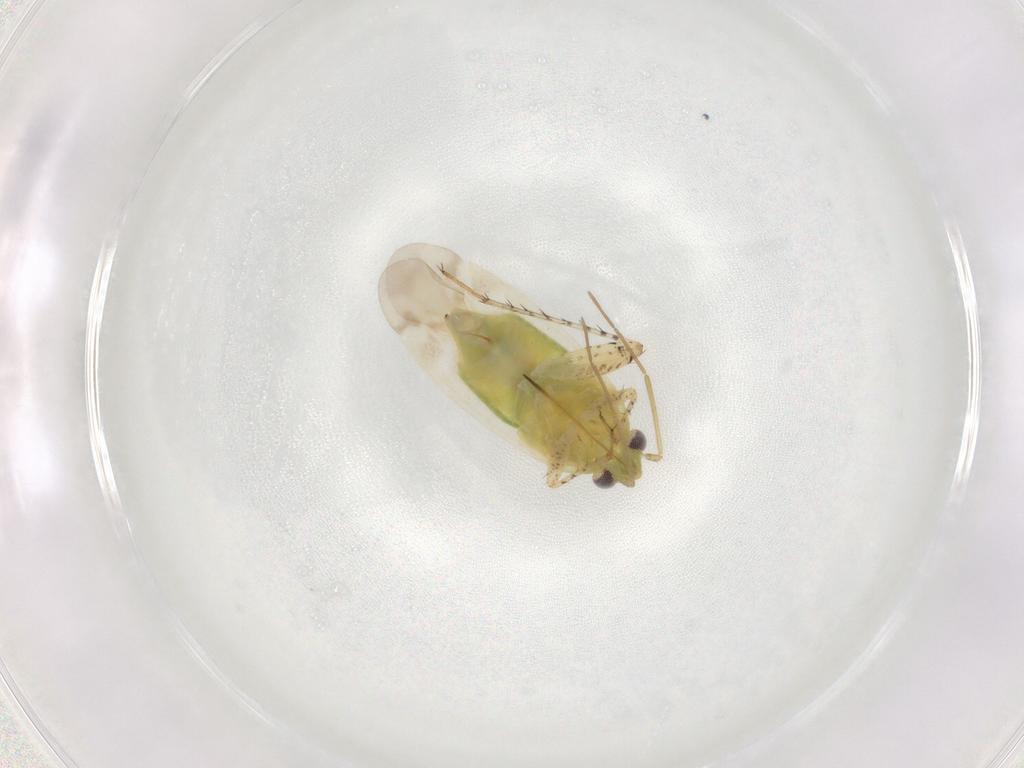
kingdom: Animalia
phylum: Arthropoda
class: Insecta
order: Hemiptera
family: Miridae
